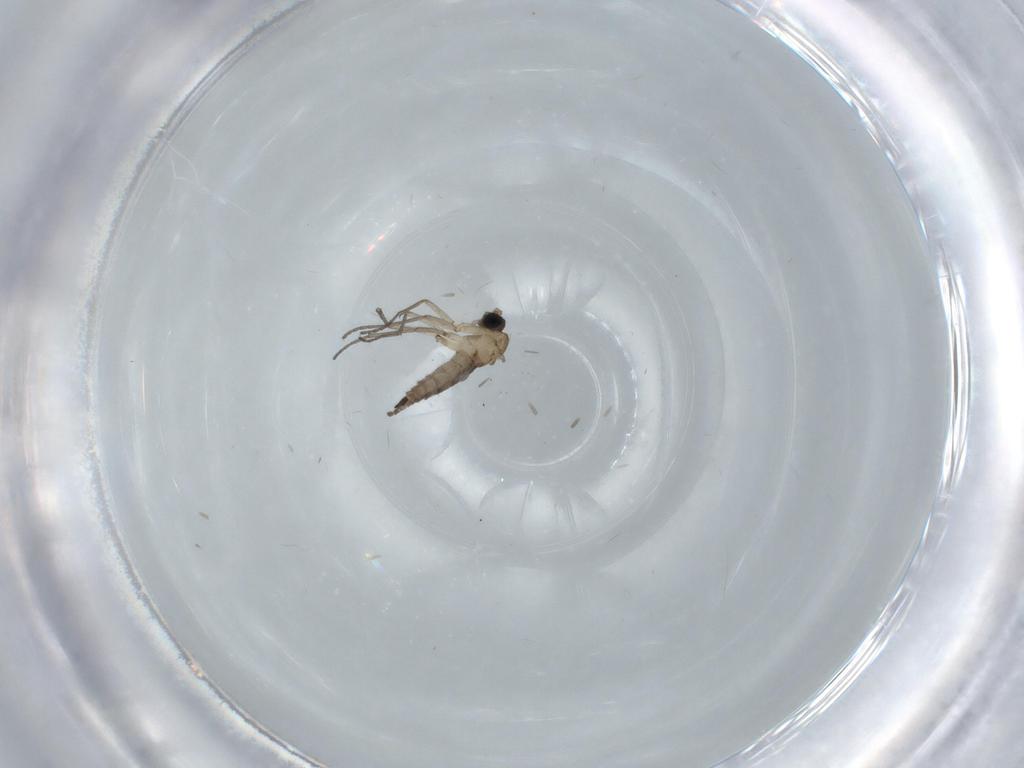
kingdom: Animalia
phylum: Arthropoda
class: Insecta
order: Diptera
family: Sciaridae
